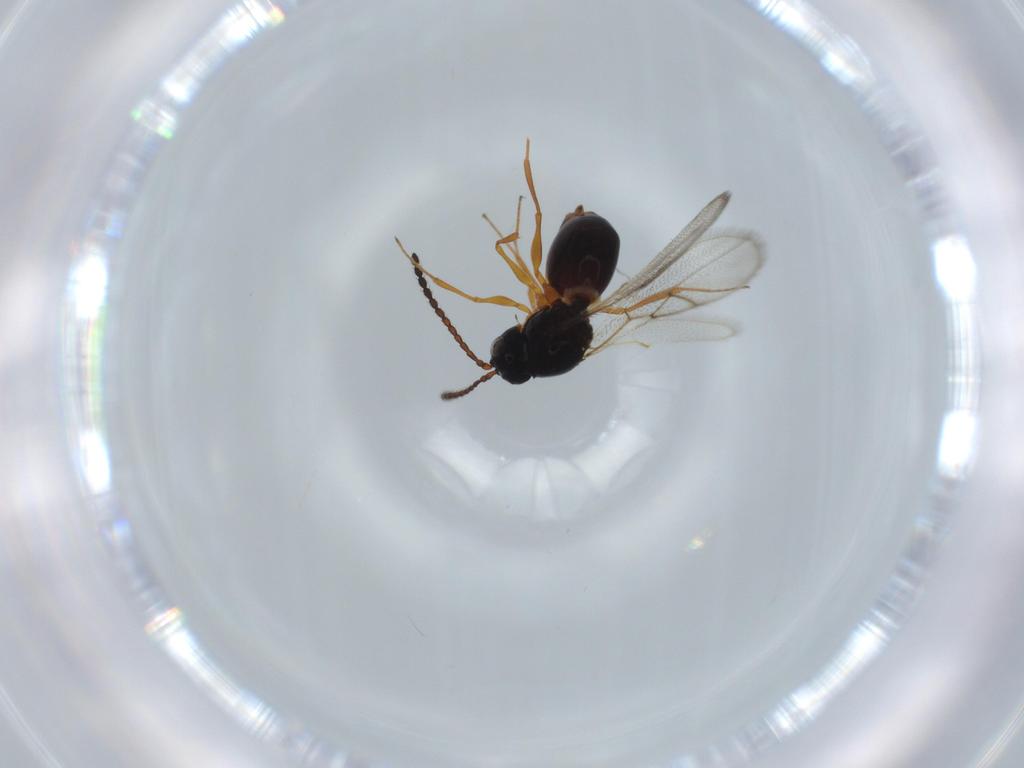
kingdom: Animalia
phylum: Arthropoda
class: Insecta
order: Hymenoptera
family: Figitidae
